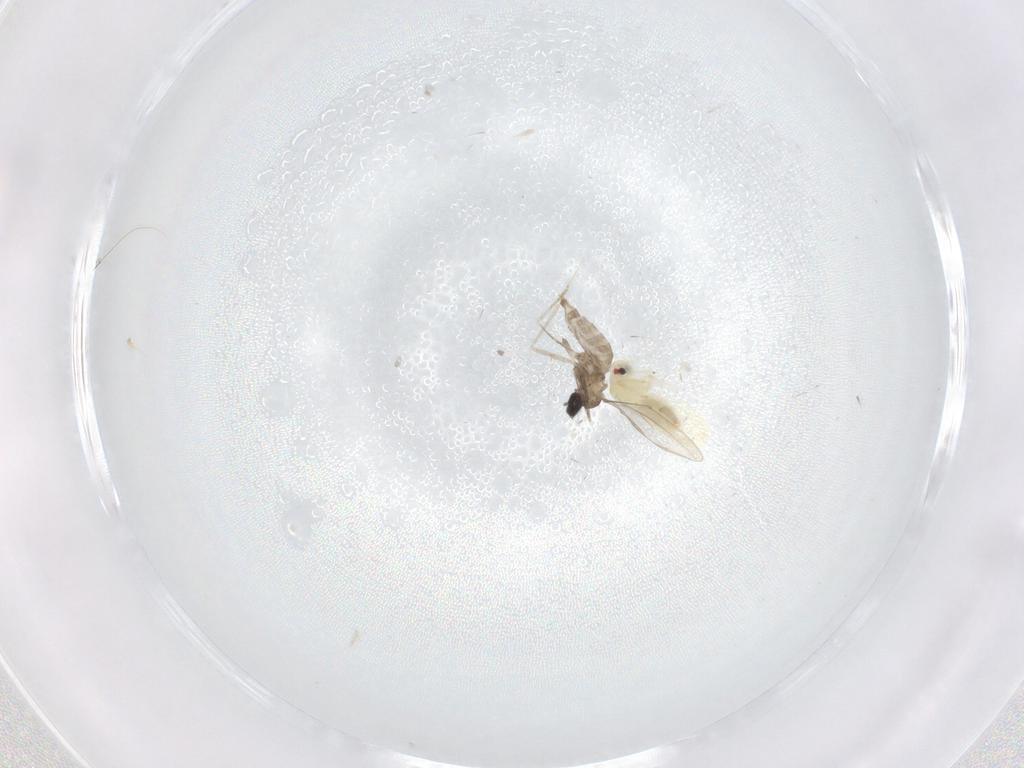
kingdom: Animalia
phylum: Arthropoda
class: Insecta
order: Diptera
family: Cecidomyiidae
